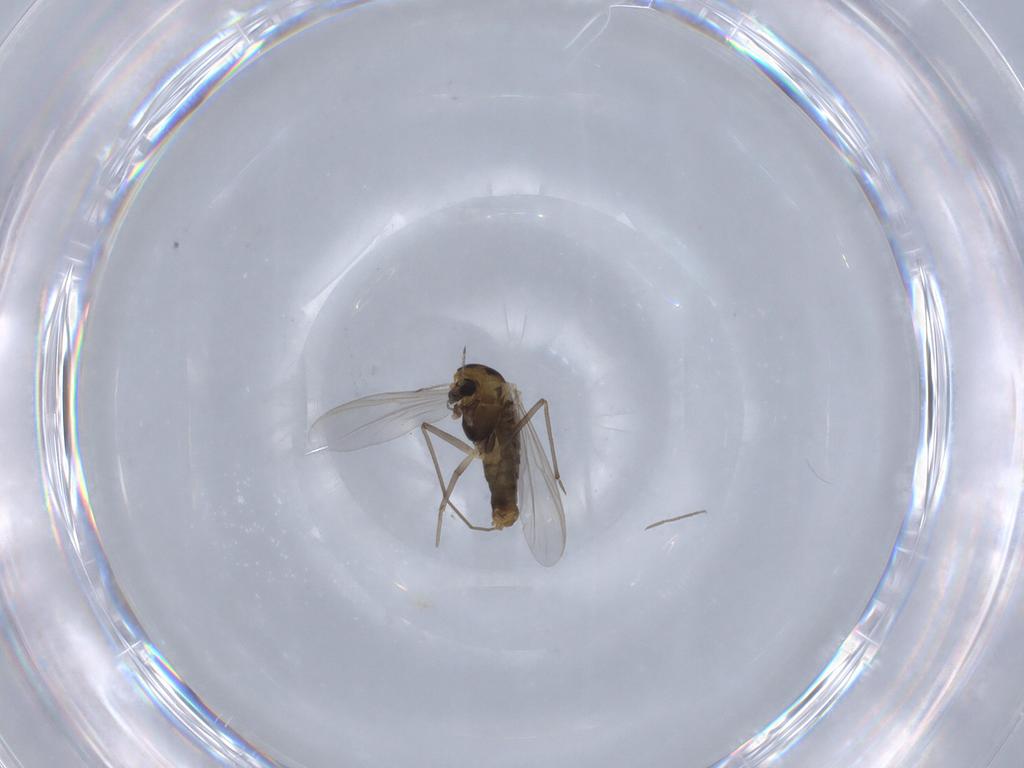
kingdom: Animalia
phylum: Arthropoda
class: Insecta
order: Diptera
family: Chironomidae
